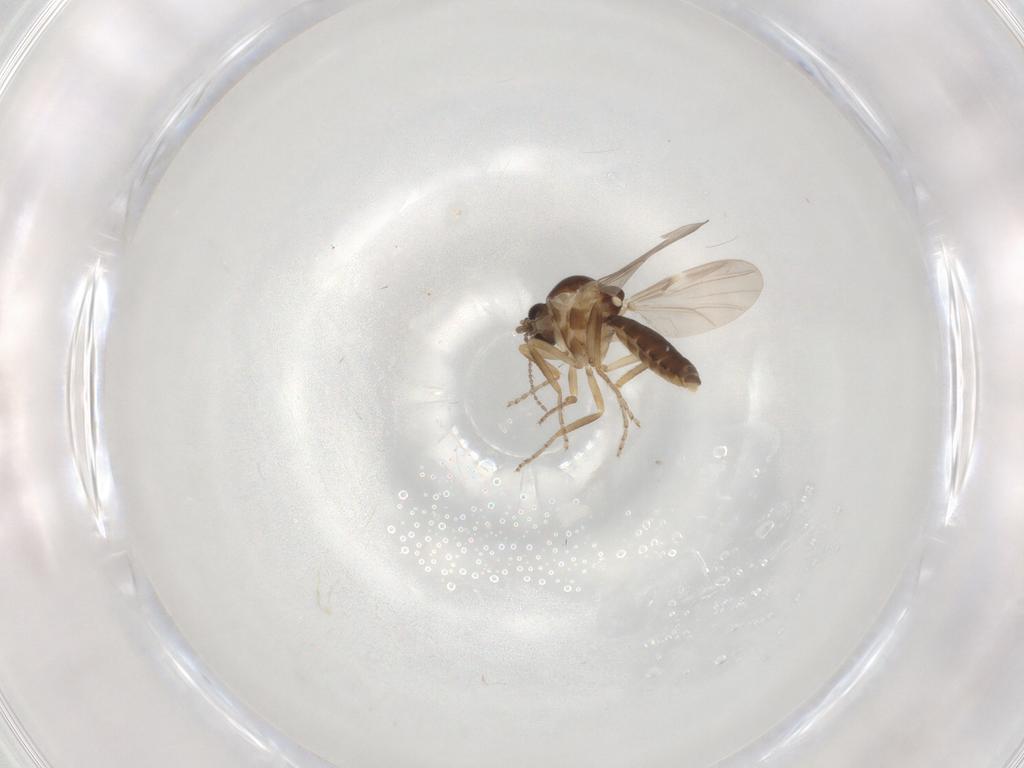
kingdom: Animalia
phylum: Arthropoda
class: Insecta
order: Diptera
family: Ceratopogonidae
